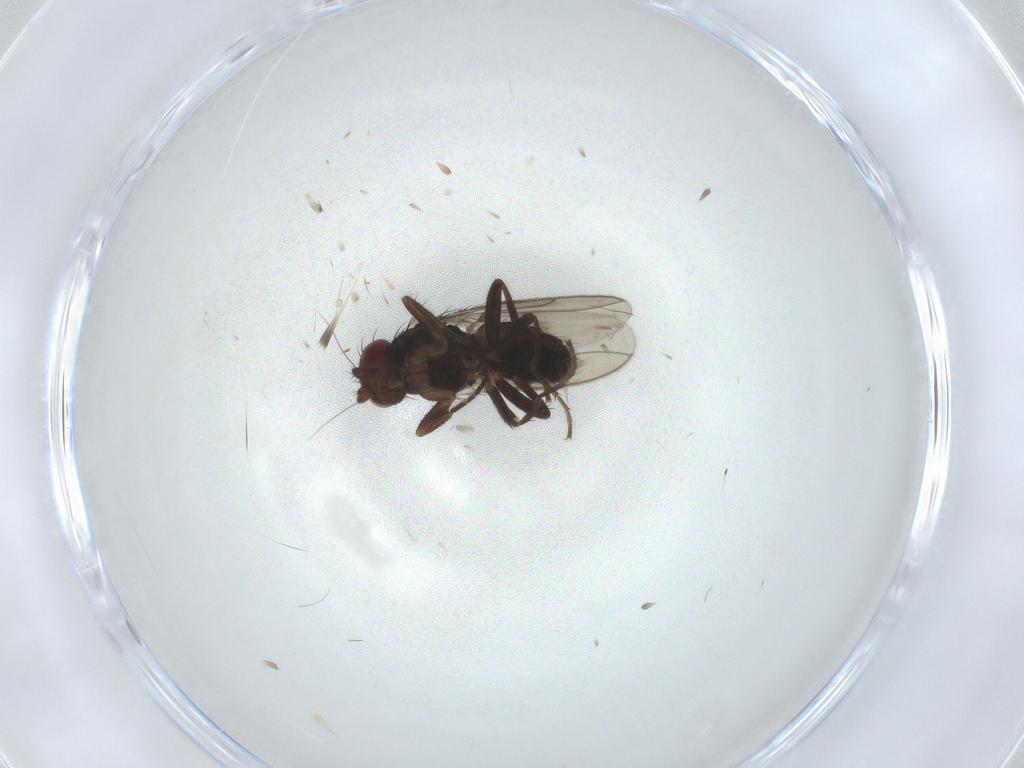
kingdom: Animalia
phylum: Arthropoda
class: Insecta
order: Diptera
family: Sphaeroceridae
